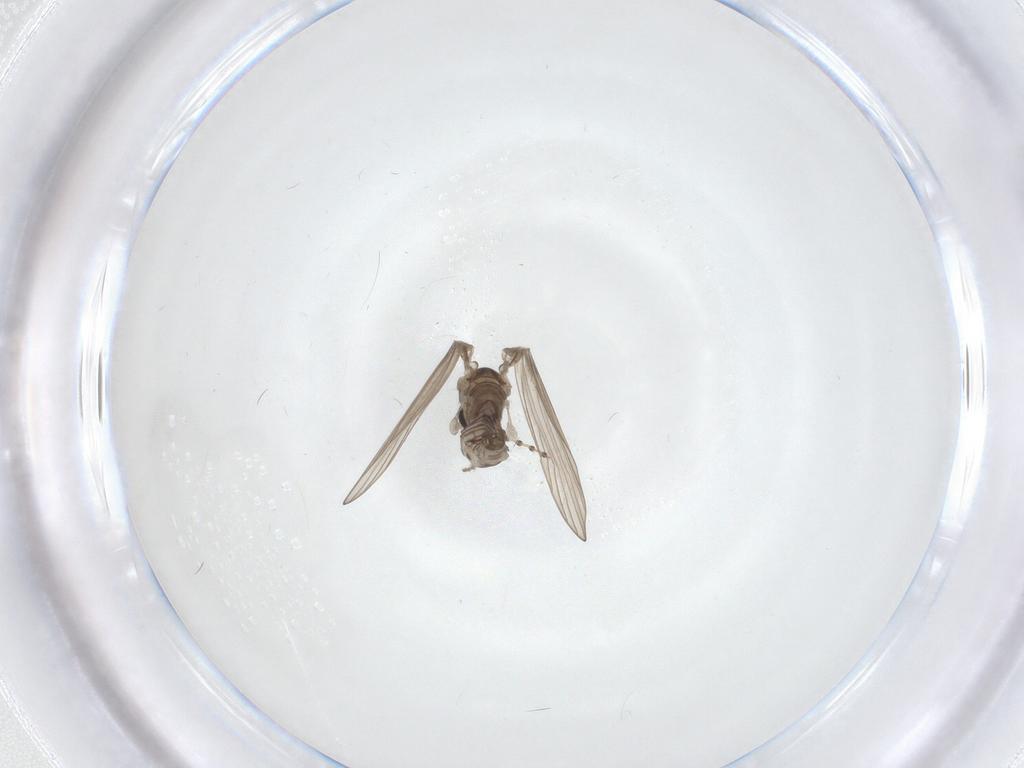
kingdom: Animalia
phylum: Arthropoda
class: Insecta
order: Diptera
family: Psychodidae
